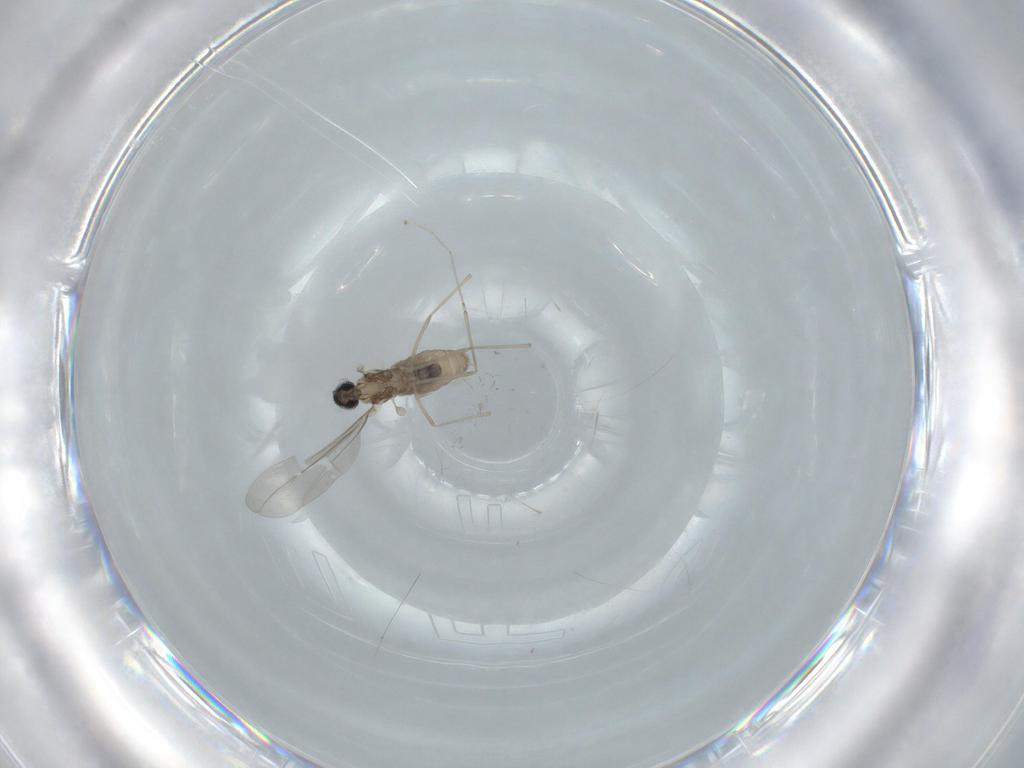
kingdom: Animalia
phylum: Arthropoda
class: Insecta
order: Diptera
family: Cecidomyiidae
